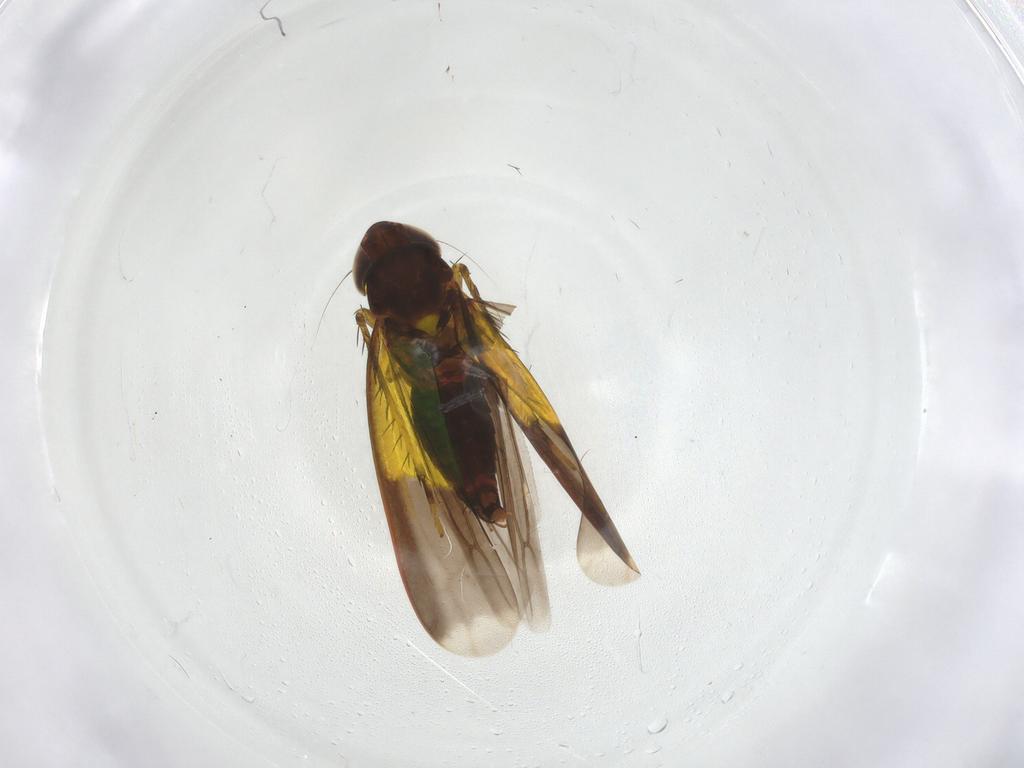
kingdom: Animalia
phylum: Arthropoda
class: Insecta
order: Hemiptera
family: Cicadellidae
